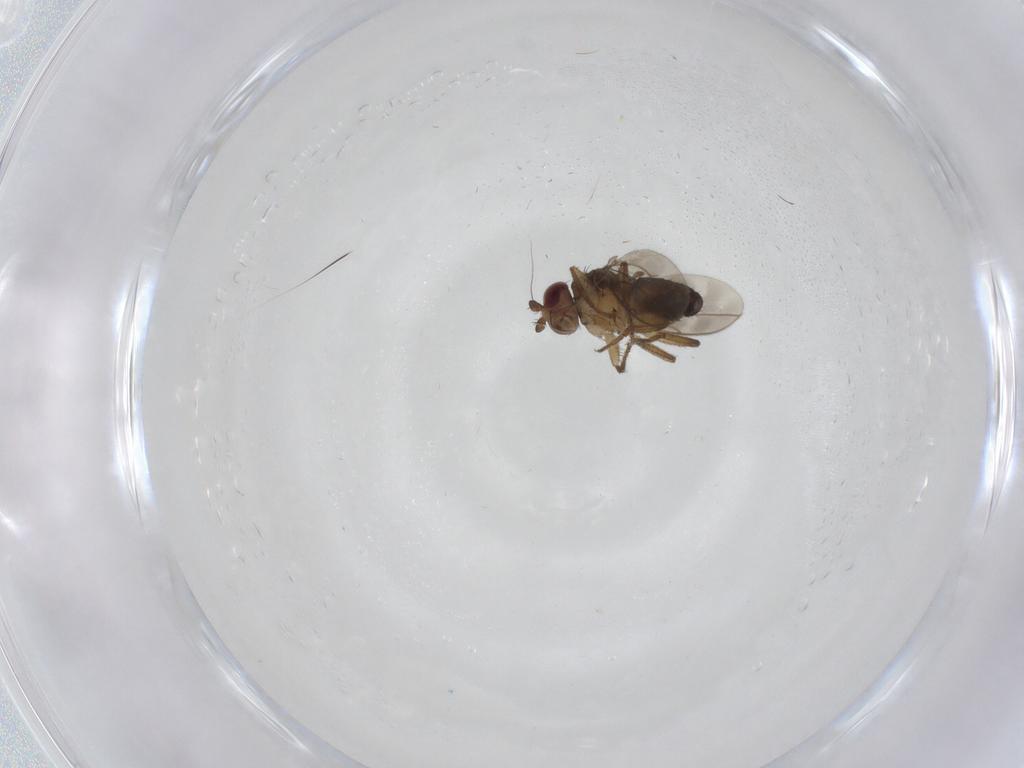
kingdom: Animalia
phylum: Arthropoda
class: Insecta
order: Diptera
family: Sphaeroceridae
